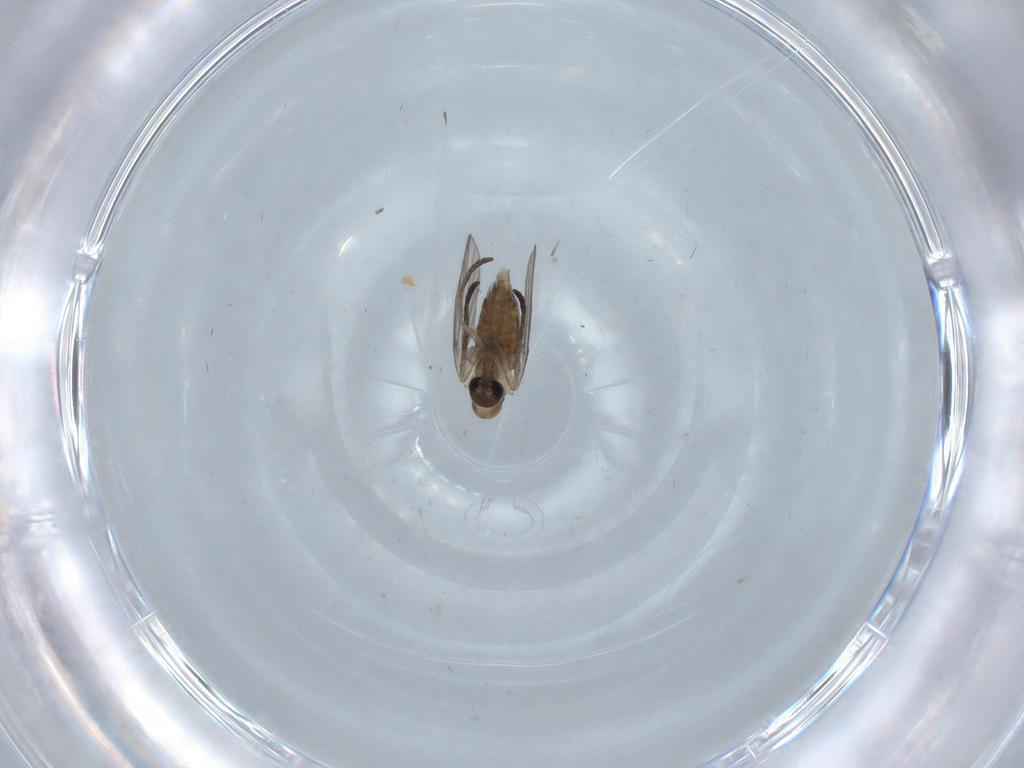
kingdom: Animalia
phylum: Arthropoda
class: Insecta
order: Diptera
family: Psychodidae
